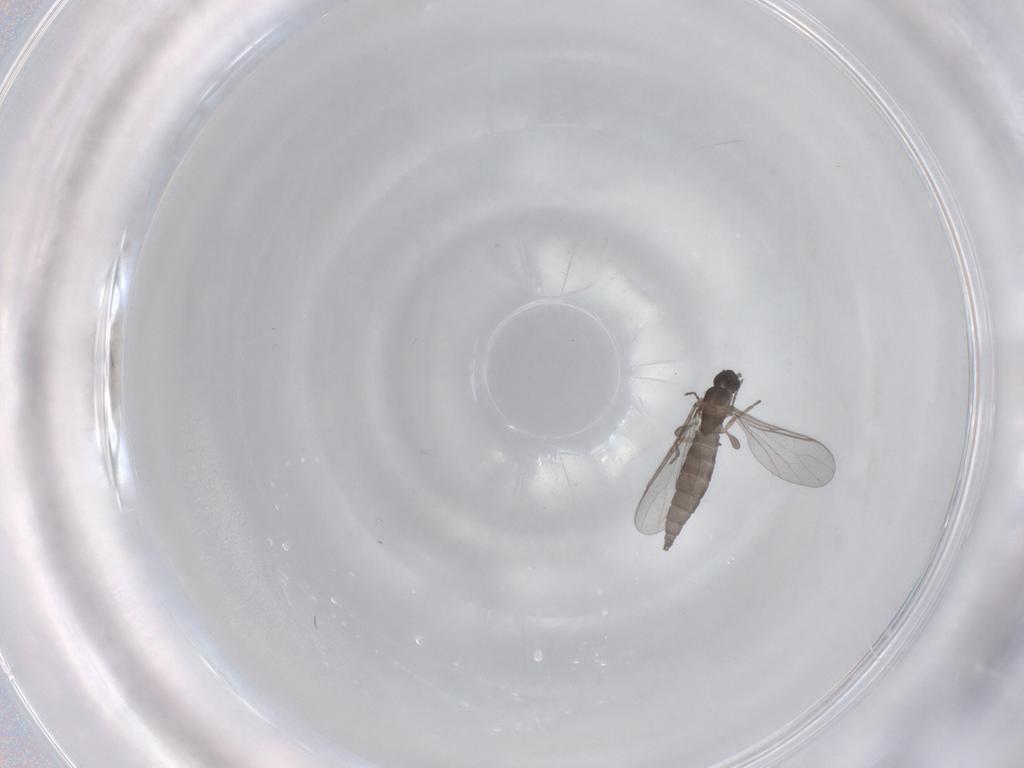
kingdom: Animalia
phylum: Arthropoda
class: Insecta
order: Diptera
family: Sciaridae
